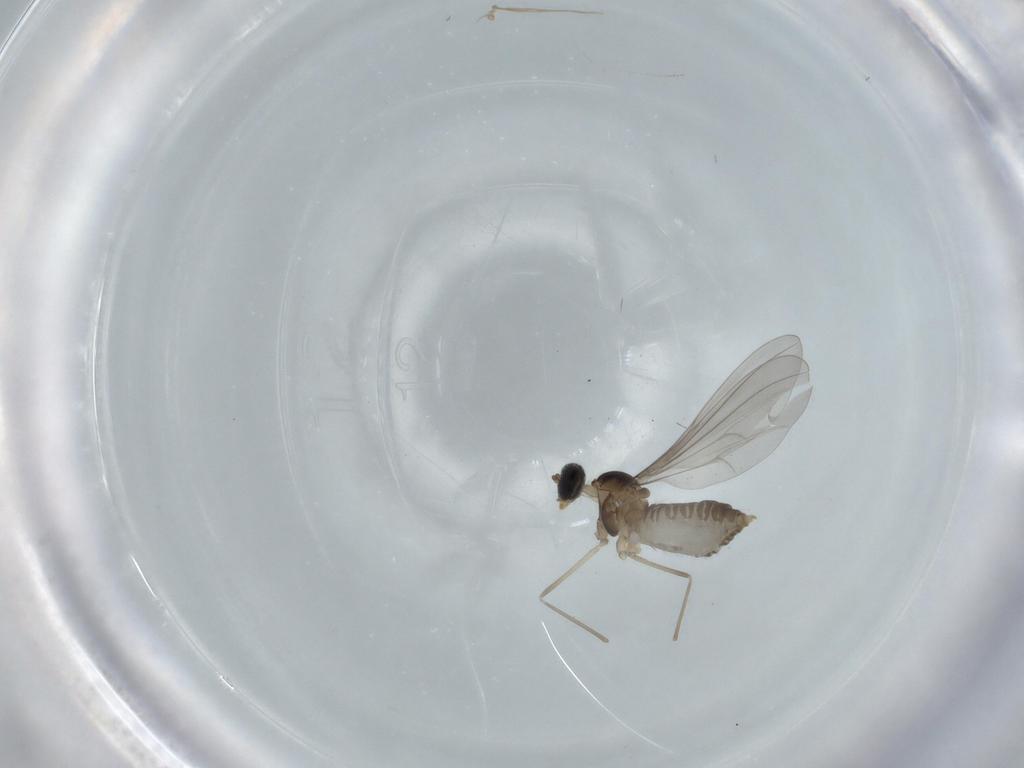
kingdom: Animalia
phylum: Arthropoda
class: Insecta
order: Diptera
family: Cecidomyiidae
